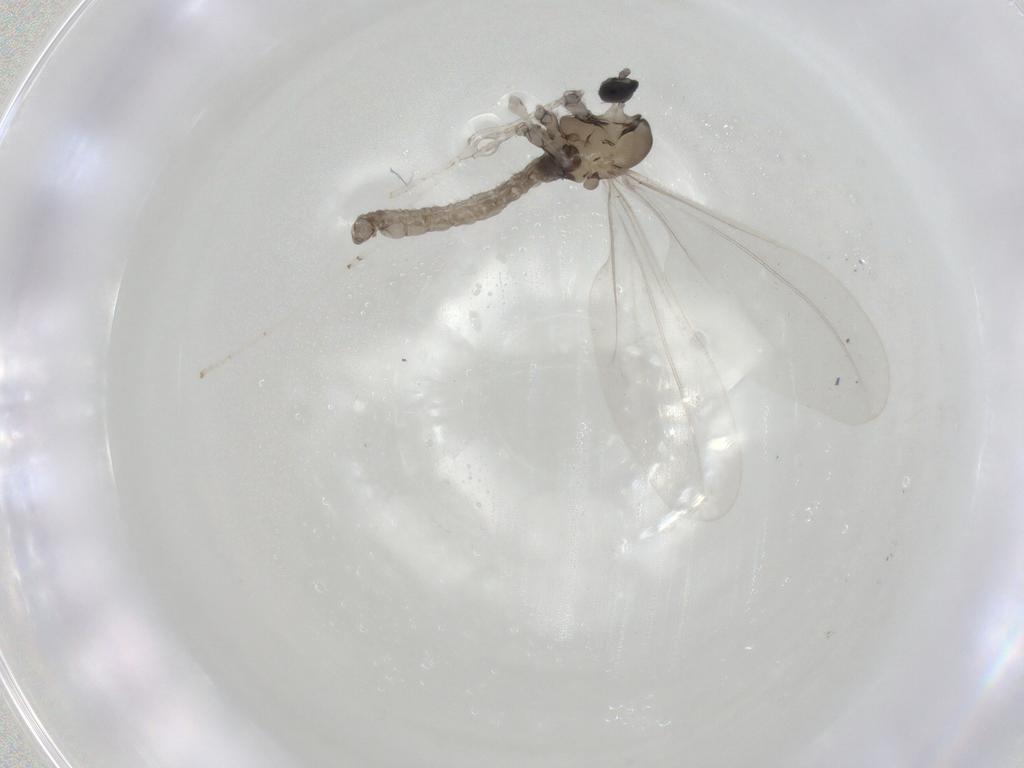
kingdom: Animalia
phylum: Arthropoda
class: Insecta
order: Diptera
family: Cecidomyiidae
